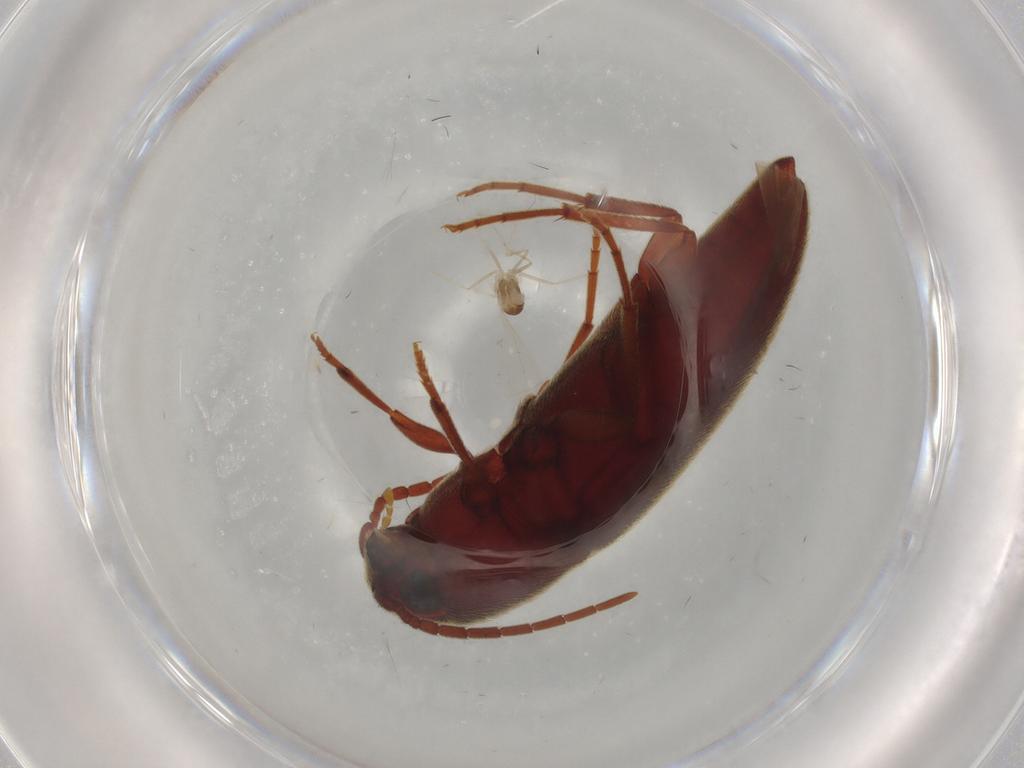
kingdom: Animalia
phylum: Arthropoda
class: Insecta
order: Coleoptera
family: Eucnemidae
